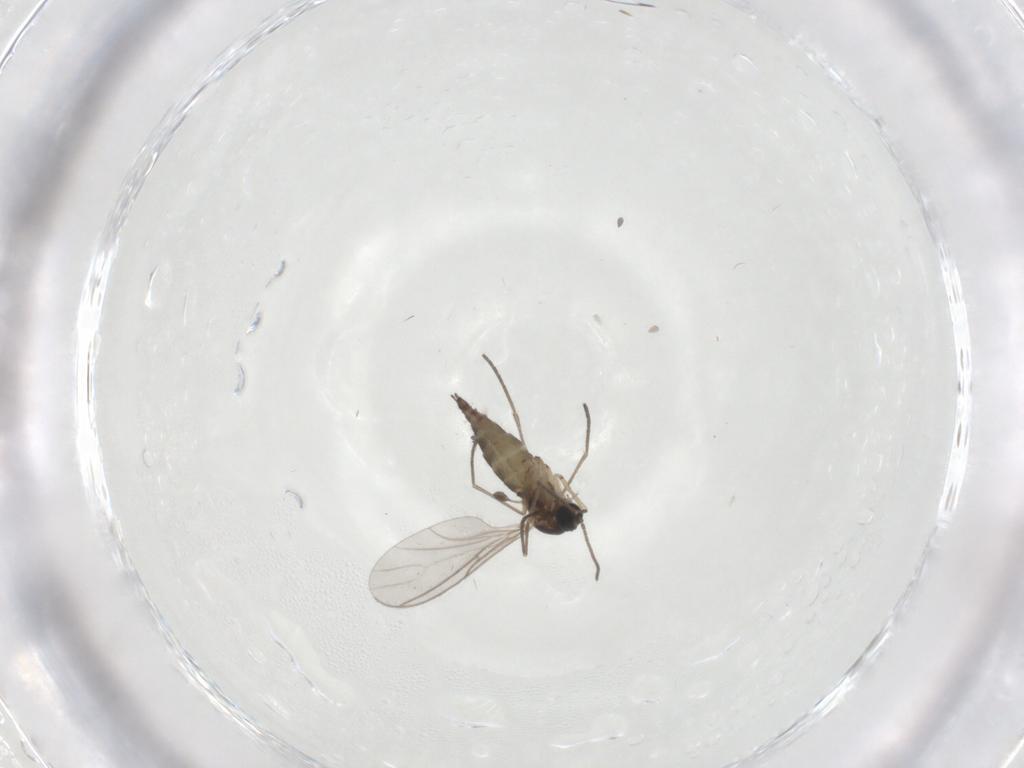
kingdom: Animalia
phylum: Arthropoda
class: Insecta
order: Diptera
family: Sciaridae
